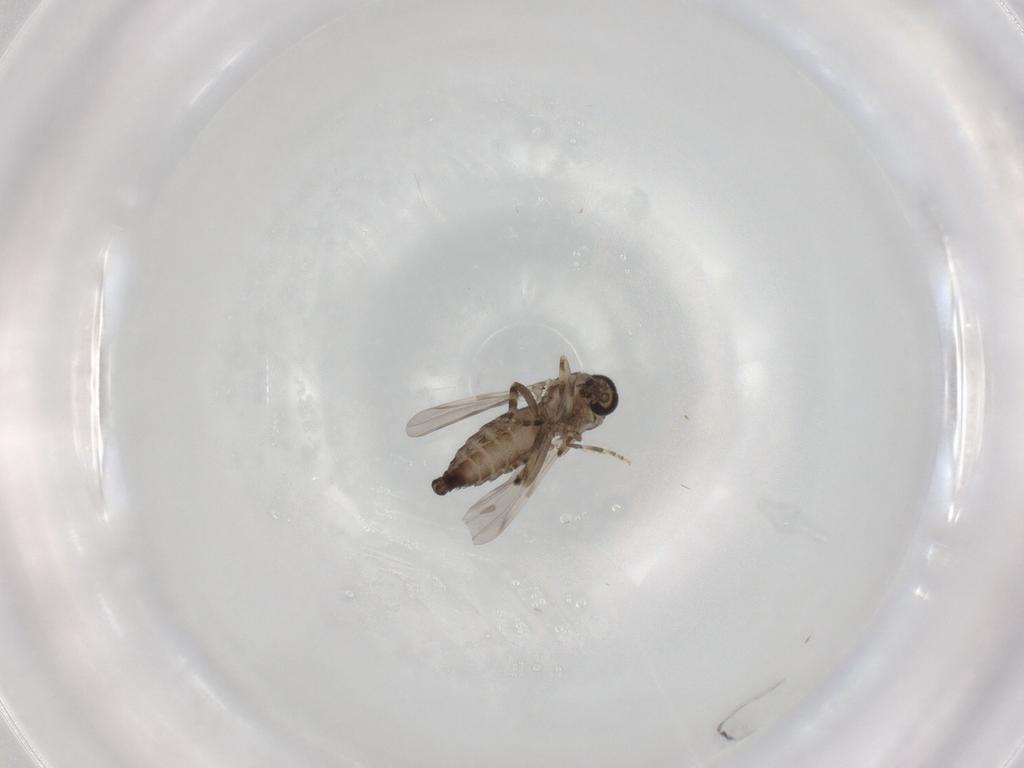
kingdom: Animalia
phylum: Arthropoda
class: Insecta
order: Diptera
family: Ceratopogonidae
